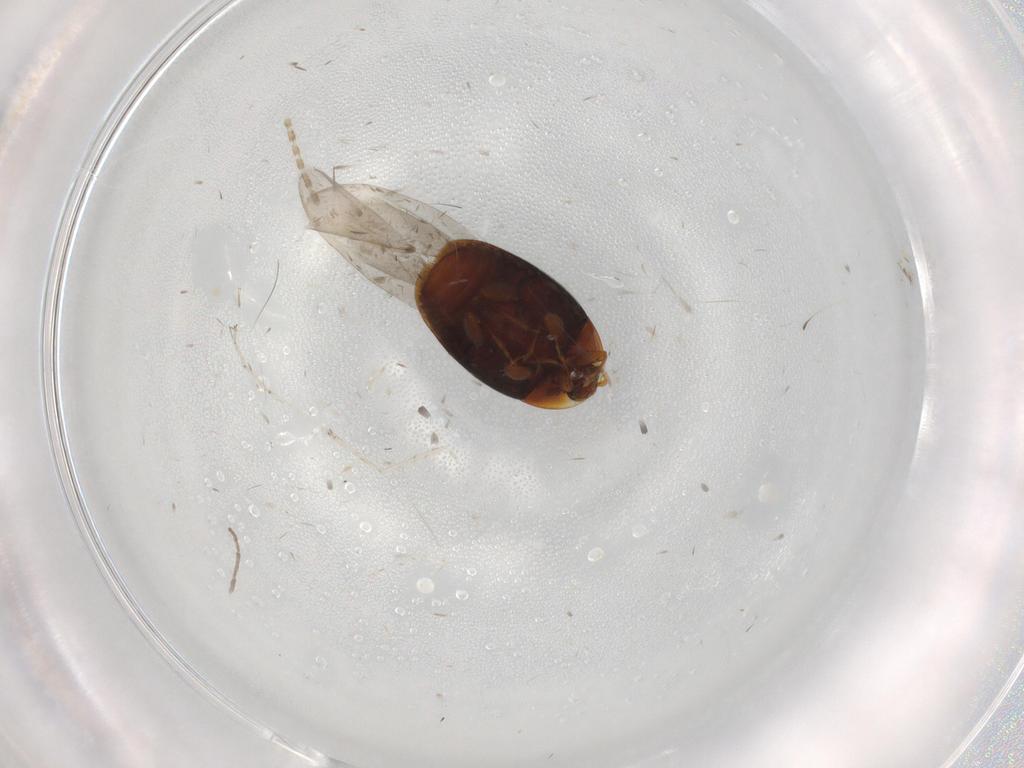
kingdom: Animalia
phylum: Arthropoda
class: Insecta
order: Coleoptera
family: Corylophidae
